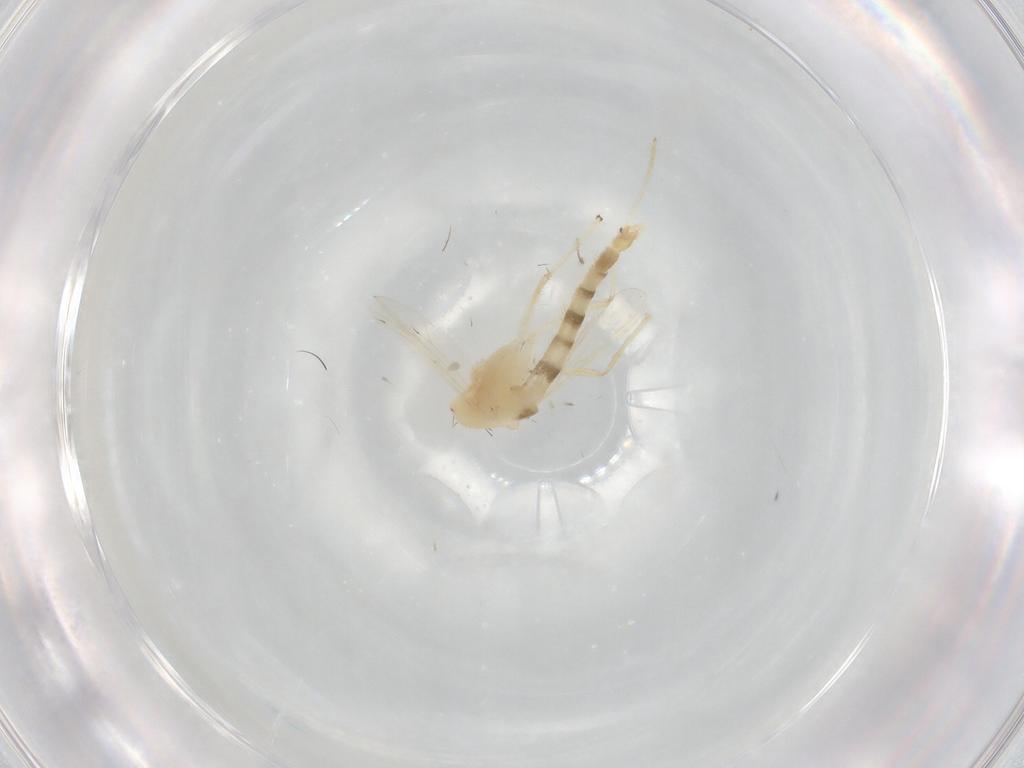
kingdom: Animalia
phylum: Arthropoda
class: Insecta
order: Diptera
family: Chironomidae
